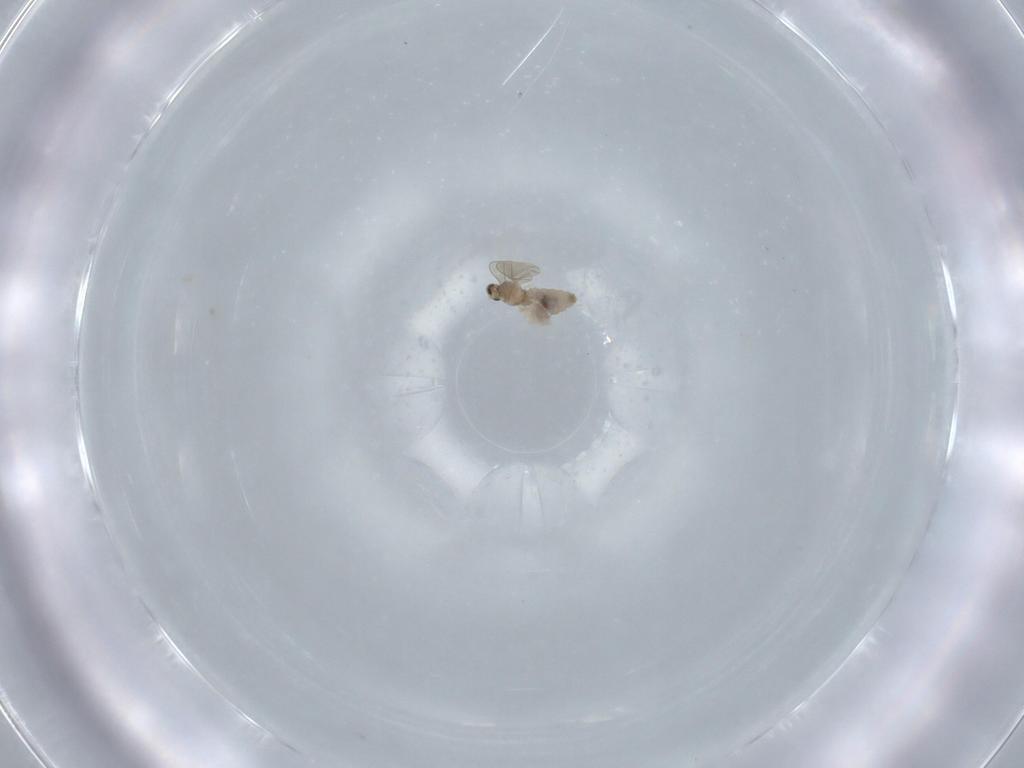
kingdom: Animalia
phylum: Arthropoda
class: Insecta
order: Diptera
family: Cecidomyiidae
